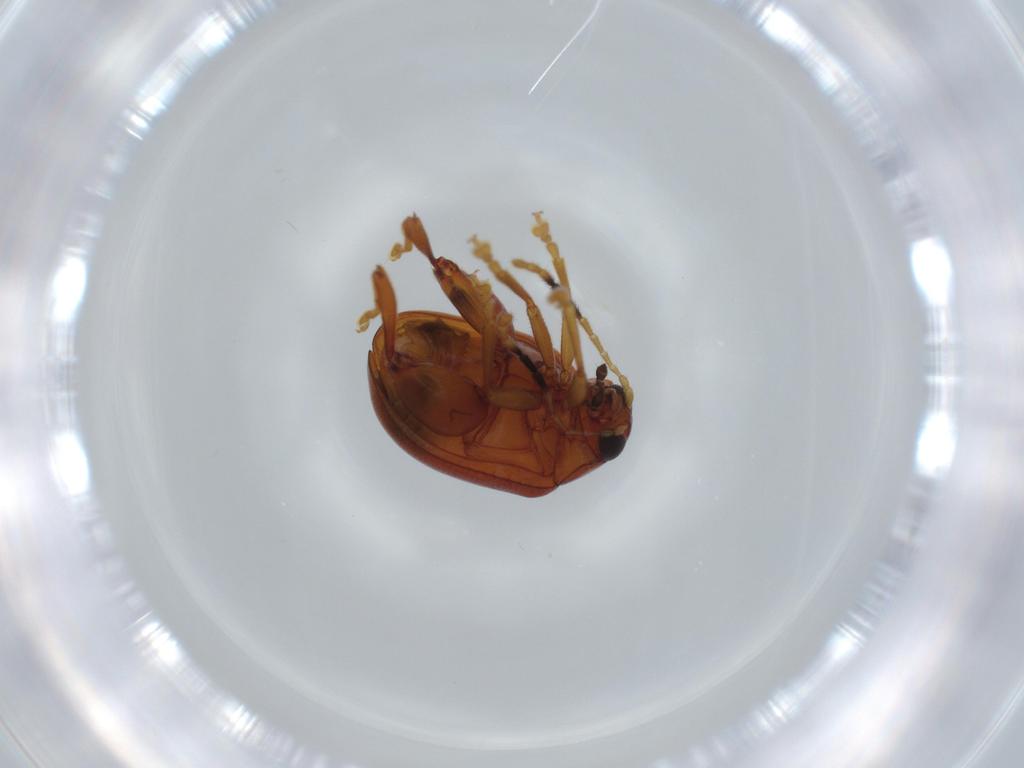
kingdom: Animalia
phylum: Arthropoda
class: Insecta
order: Coleoptera
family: Chrysomelidae
